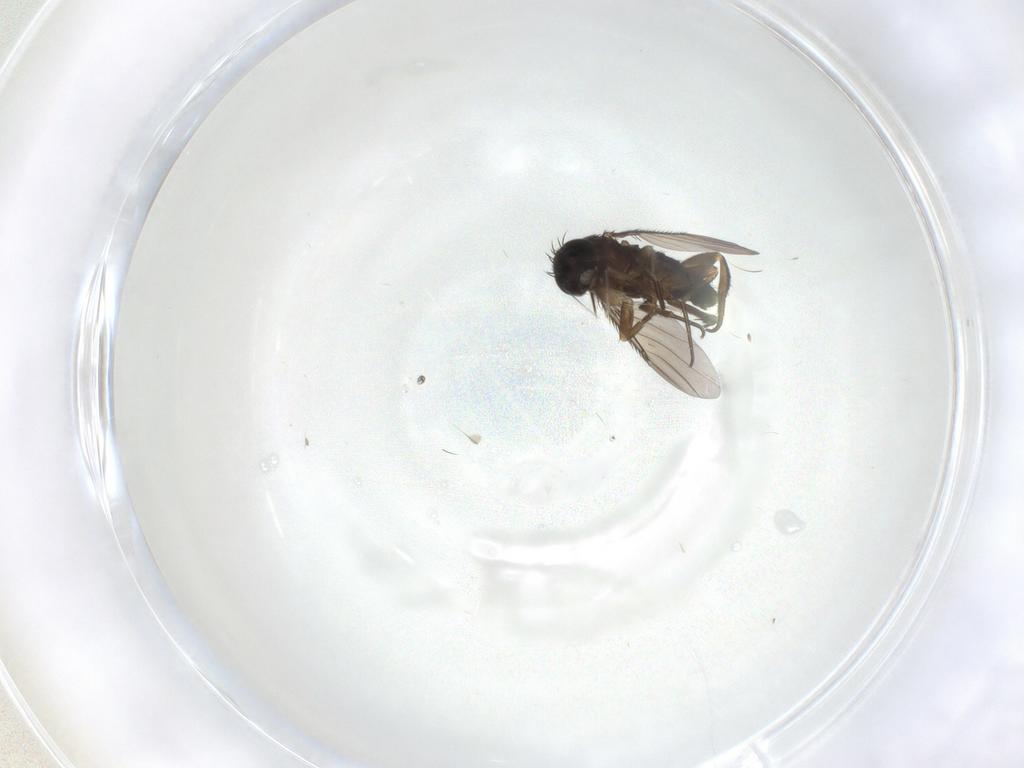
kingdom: Animalia
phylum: Arthropoda
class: Insecta
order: Diptera
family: Phoridae
